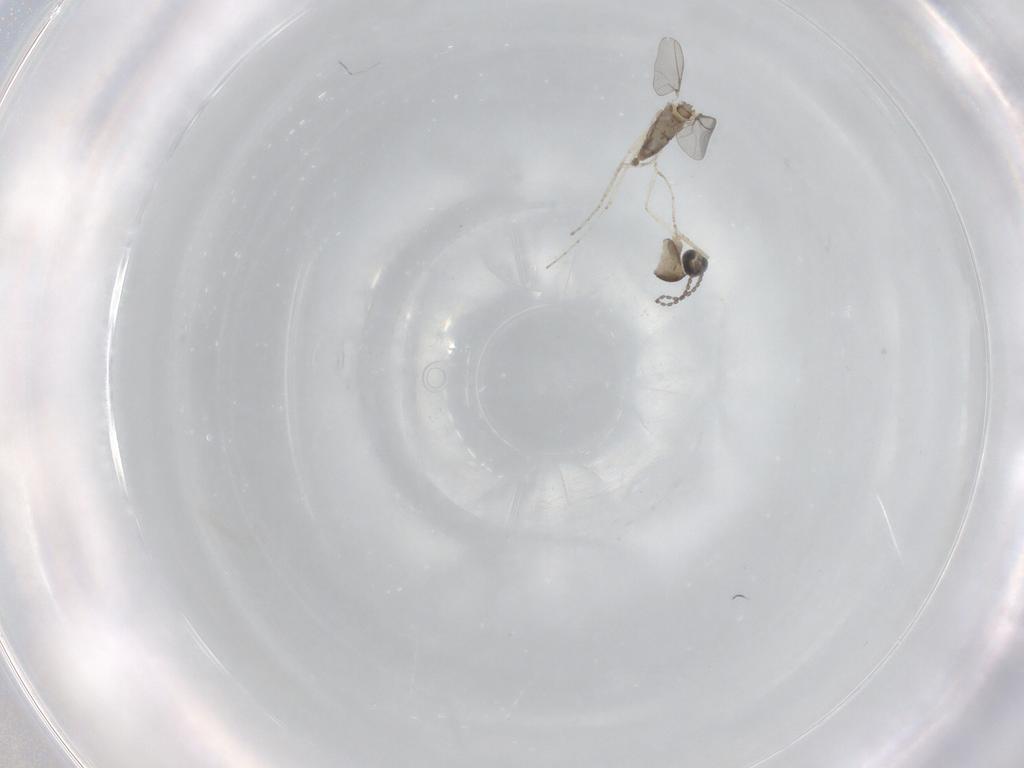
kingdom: Animalia
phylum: Arthropoda
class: Insecta
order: Diptera
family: Cecidomyiidae
